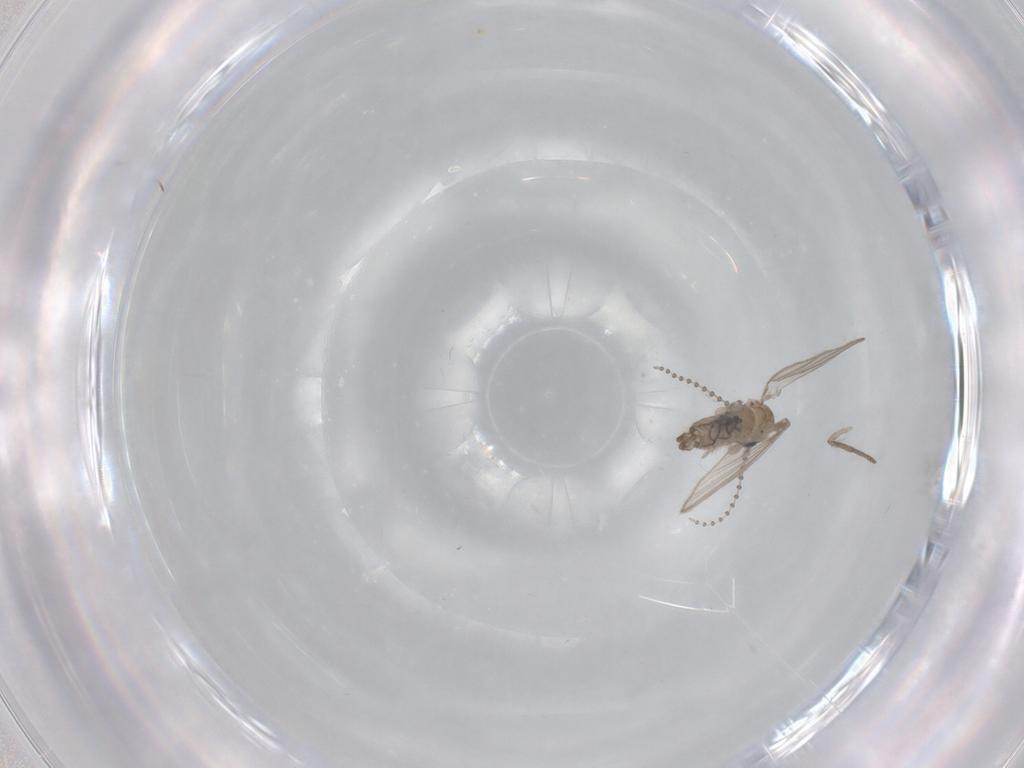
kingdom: Animalia
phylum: Arthropoda
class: Insecta
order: Diptera
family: Psychodidae
